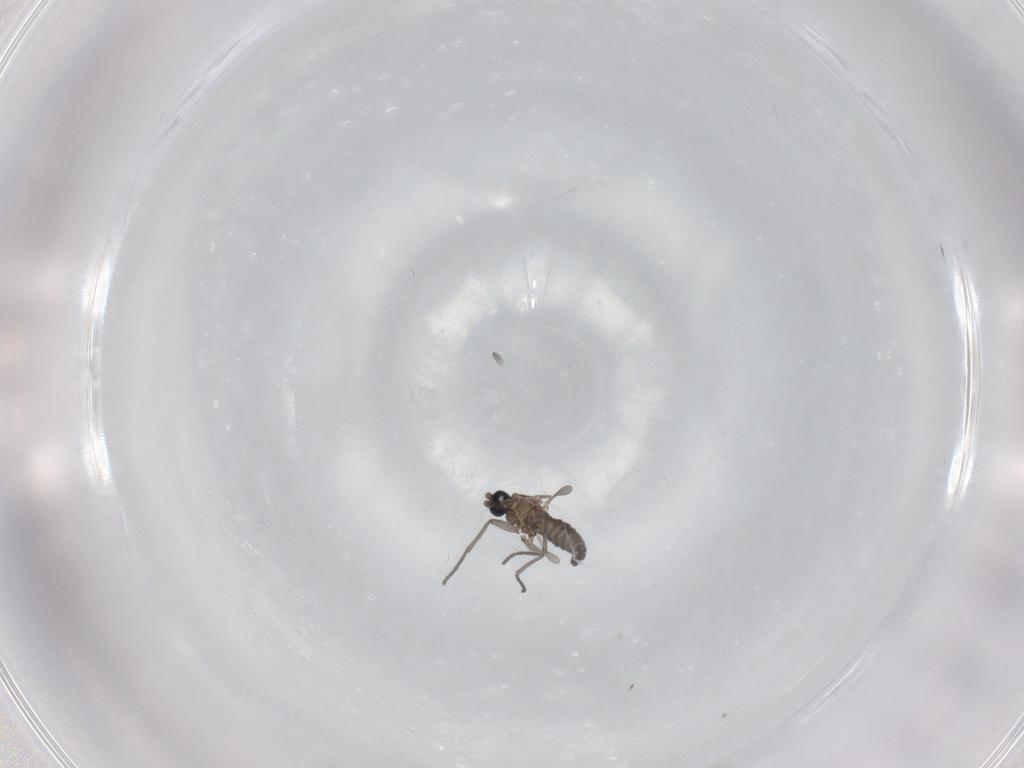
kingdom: Animalia
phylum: Arthropoda
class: Insecta
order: Diptera
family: Sciaridae
